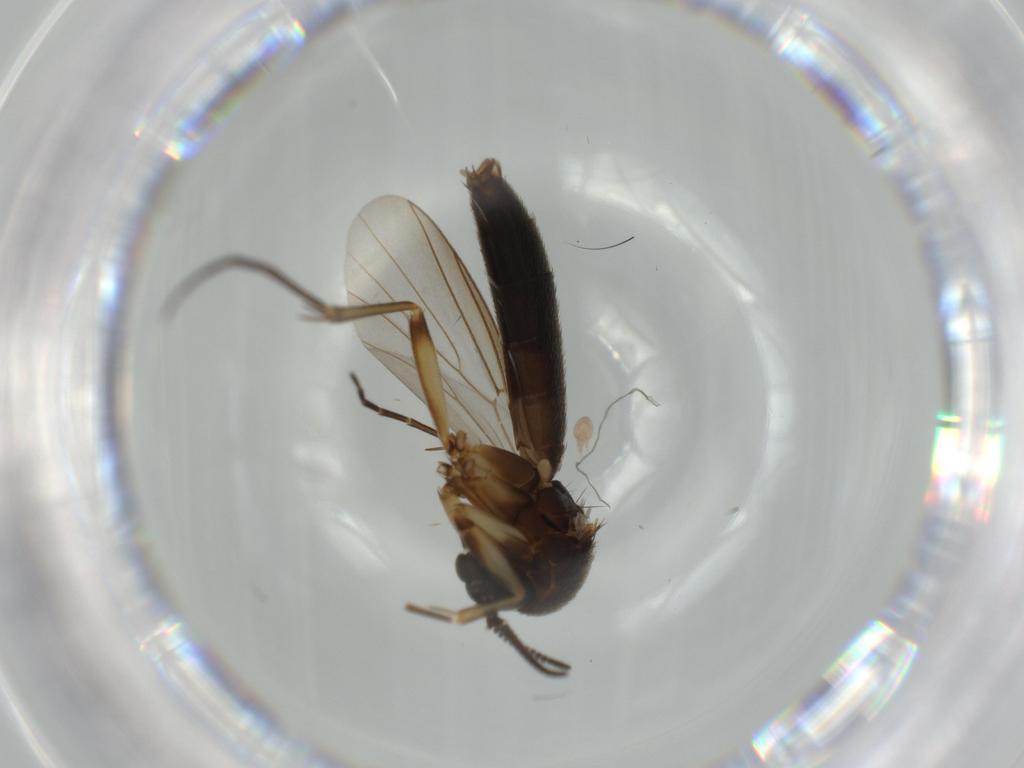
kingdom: Animalia
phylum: Arthropoda
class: Insecta
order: Diptera
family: Mycetophilidae
